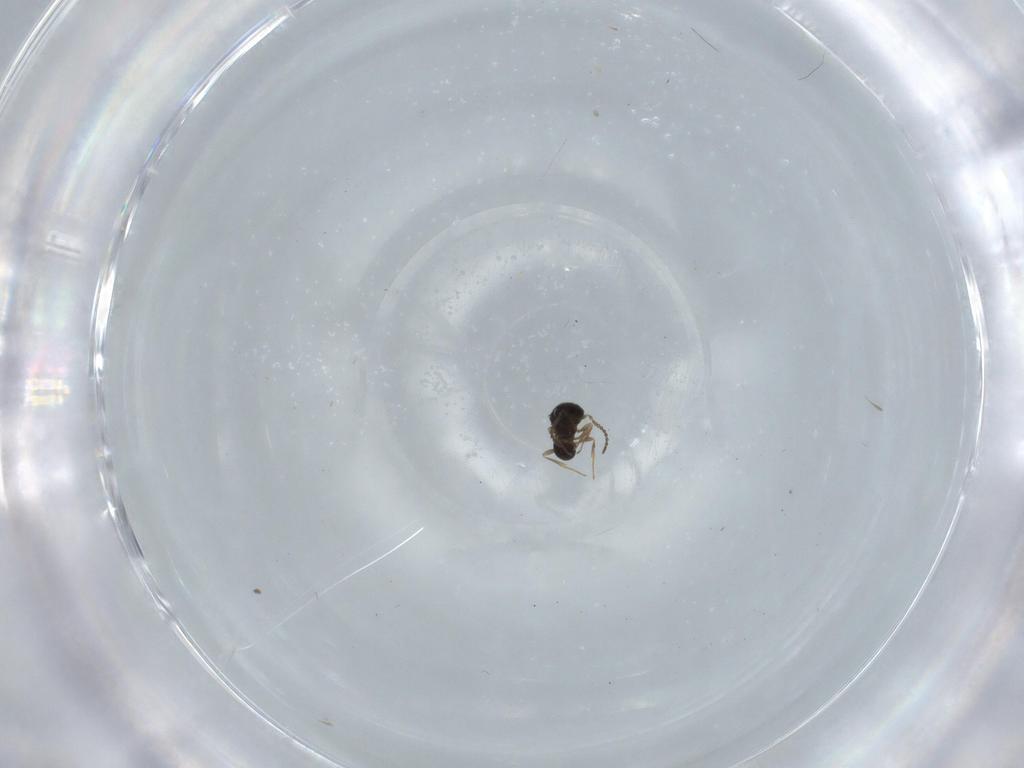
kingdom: Animalia
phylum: Arthropoda
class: Insecta
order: Hymenoptera
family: Scelionidae
